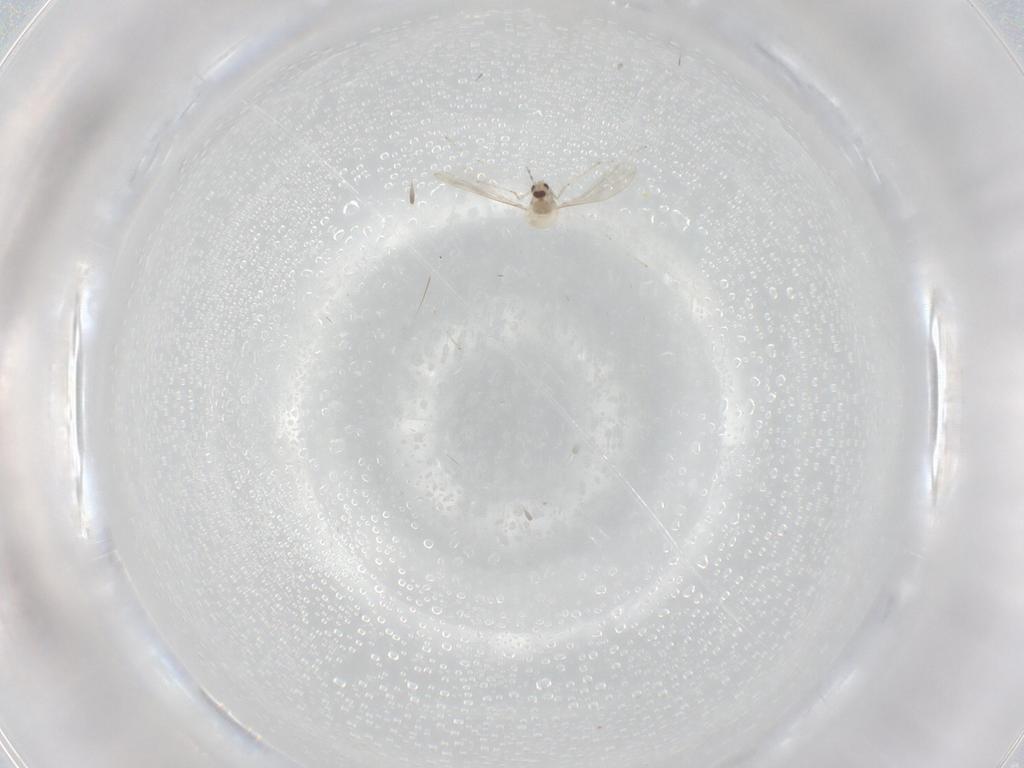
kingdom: Animalia
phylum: Arthropoda
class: Insecta
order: Diptera
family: Cecidomyiidae
